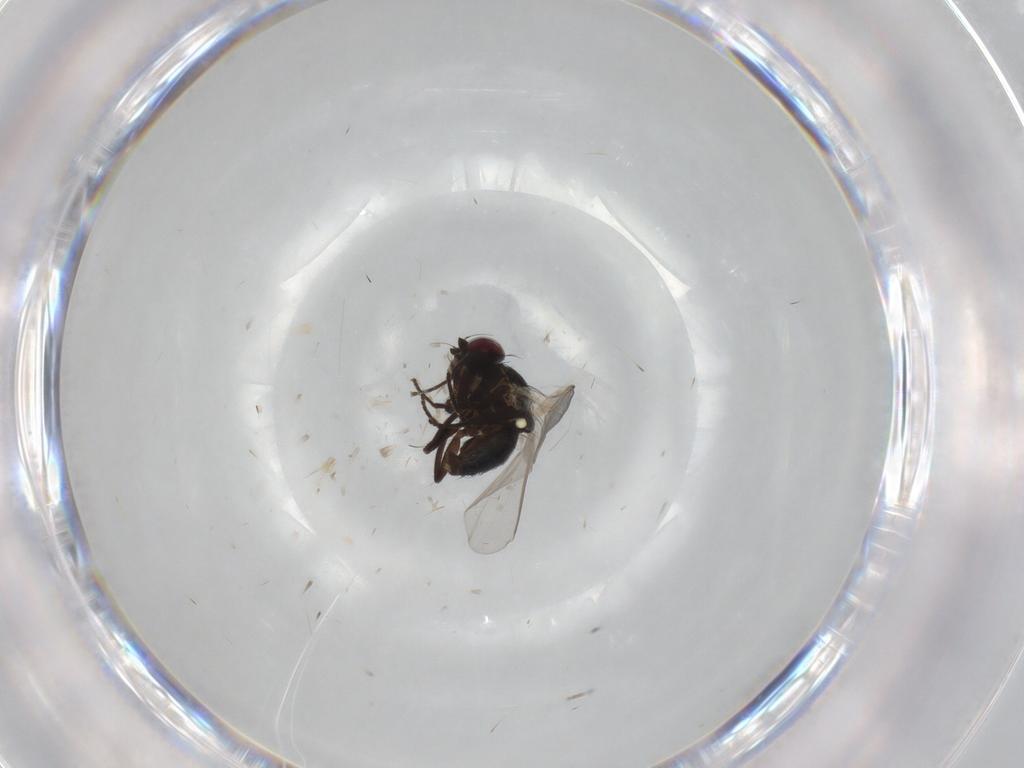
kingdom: Animalia
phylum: Arthropoda
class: Insecta
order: Diptera
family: Agromyzidae
